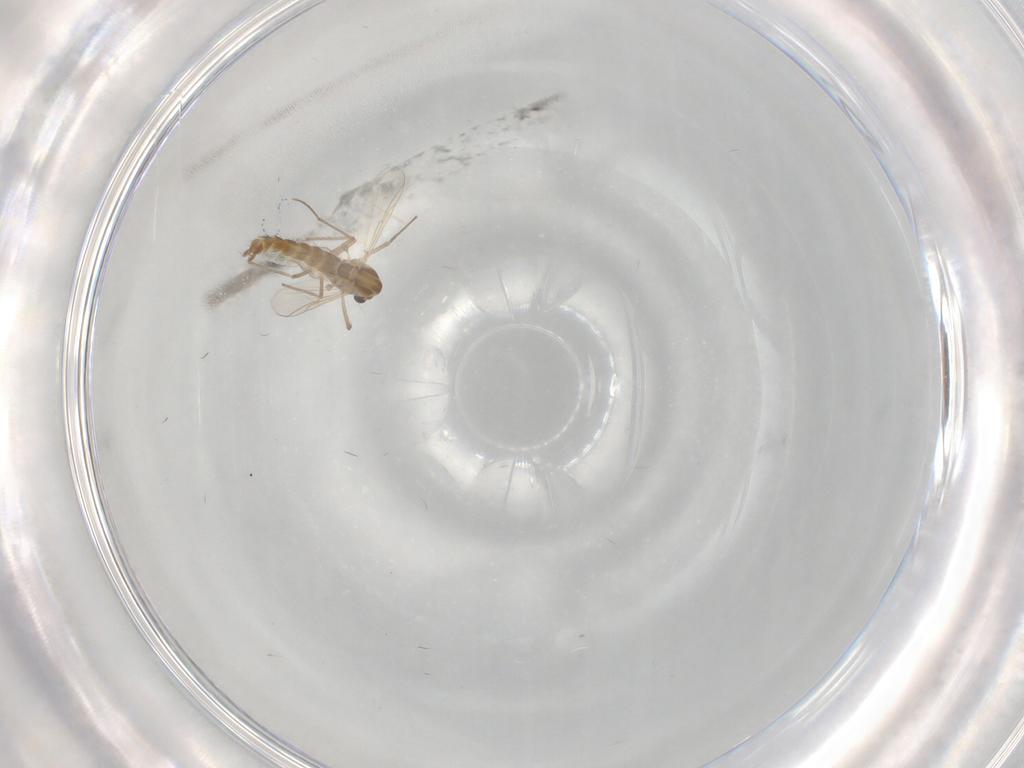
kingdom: Animalia
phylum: Arthropoda
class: Insecta
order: Diptera
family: Chironomidae
